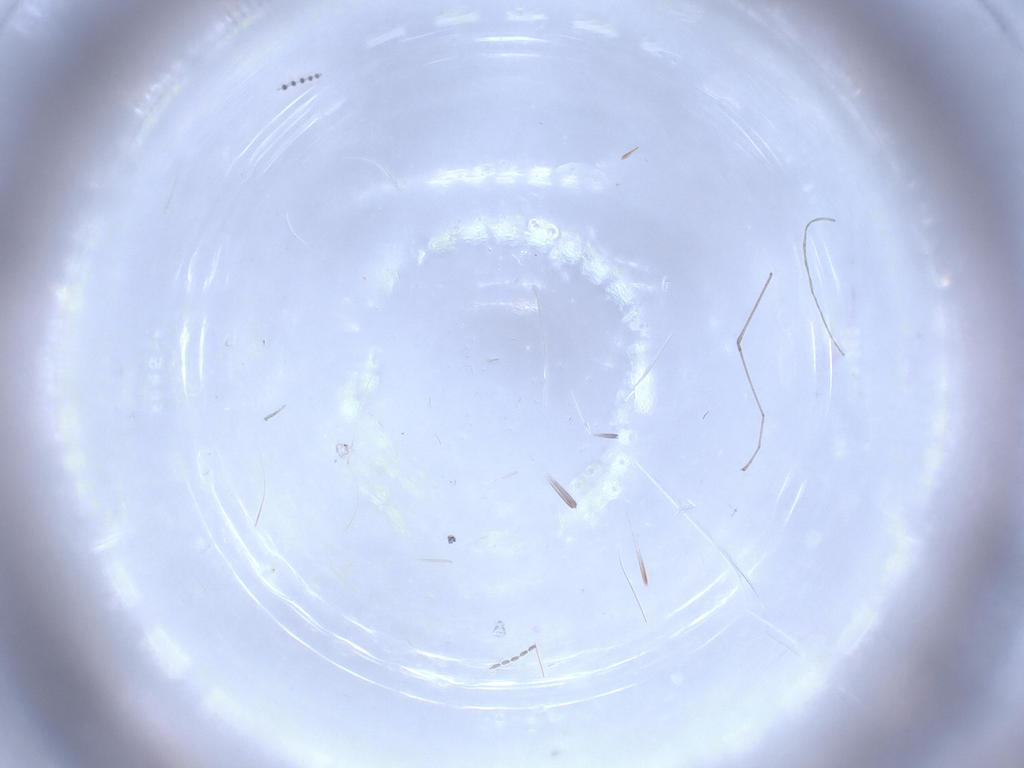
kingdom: Animalia
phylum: Arthropoda
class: Insecta
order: Diptera
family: Cecidomyiidae
